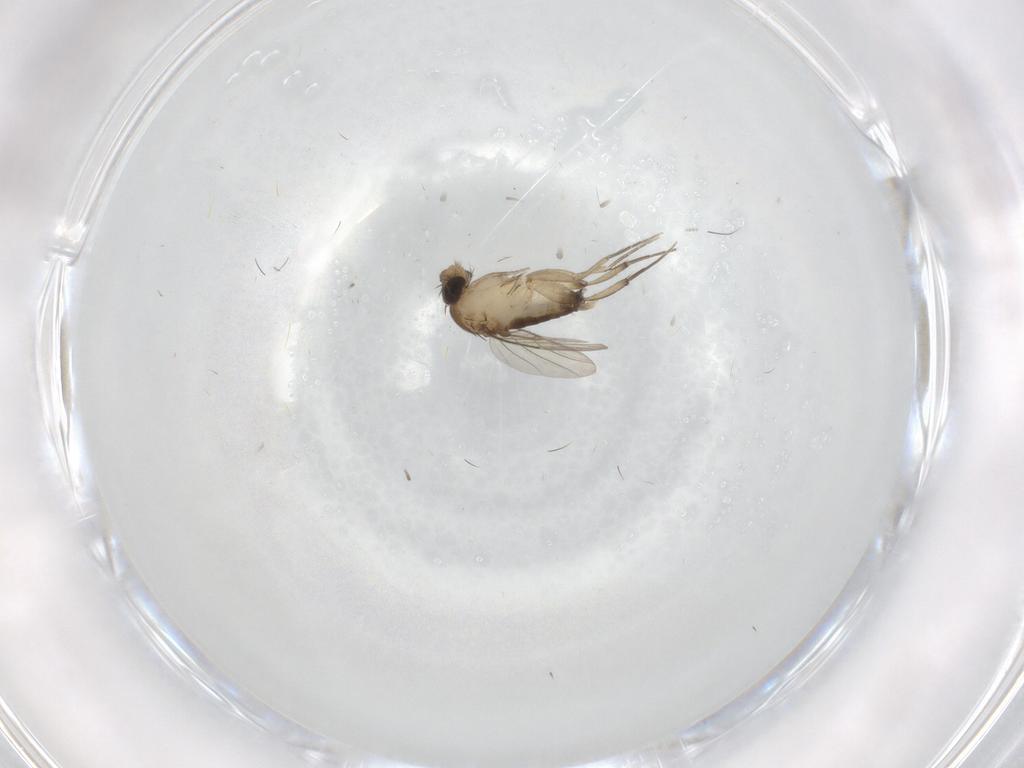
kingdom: Animalia
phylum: Arthropoda
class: Insecta
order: Diptera
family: Phoridae
